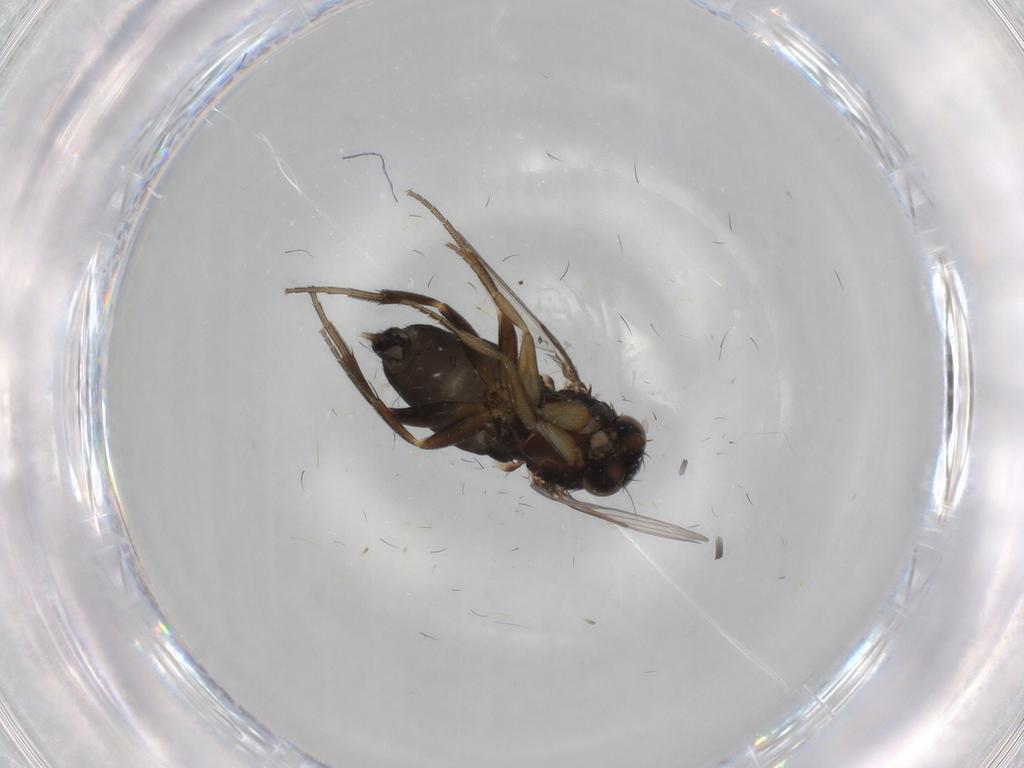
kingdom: Animalia
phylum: Arthropoda
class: Insecta
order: Diptera
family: Phoridae
